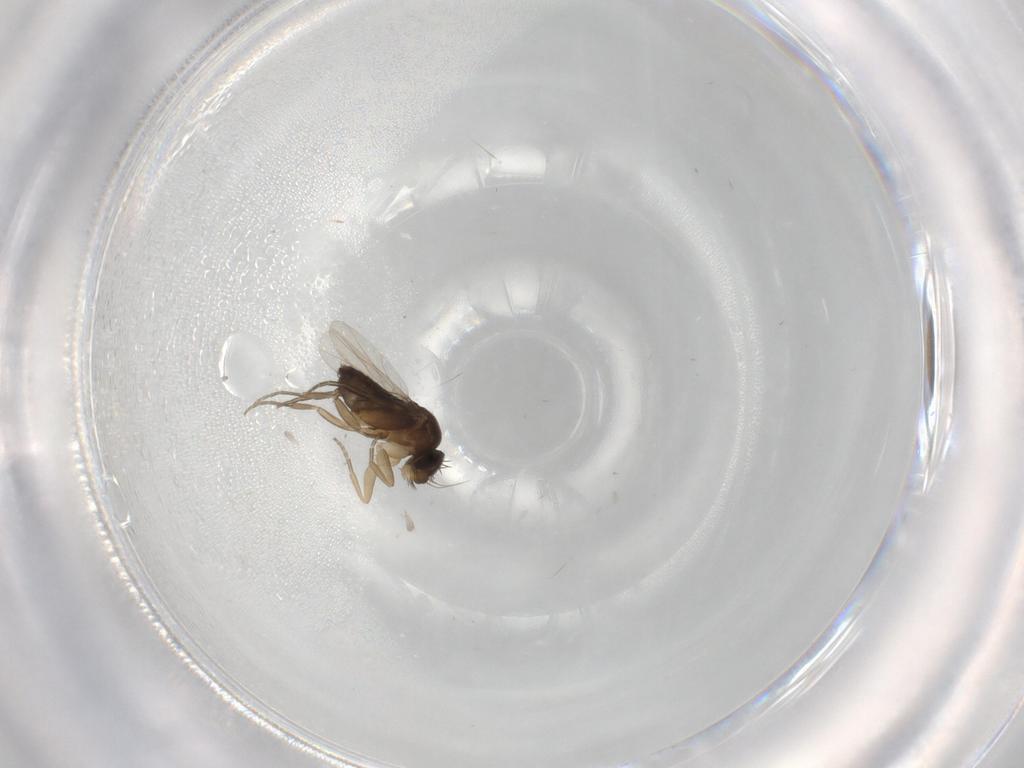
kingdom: Animalia
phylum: Arthropoda
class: Insecta
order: Diptera
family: Phoridae
